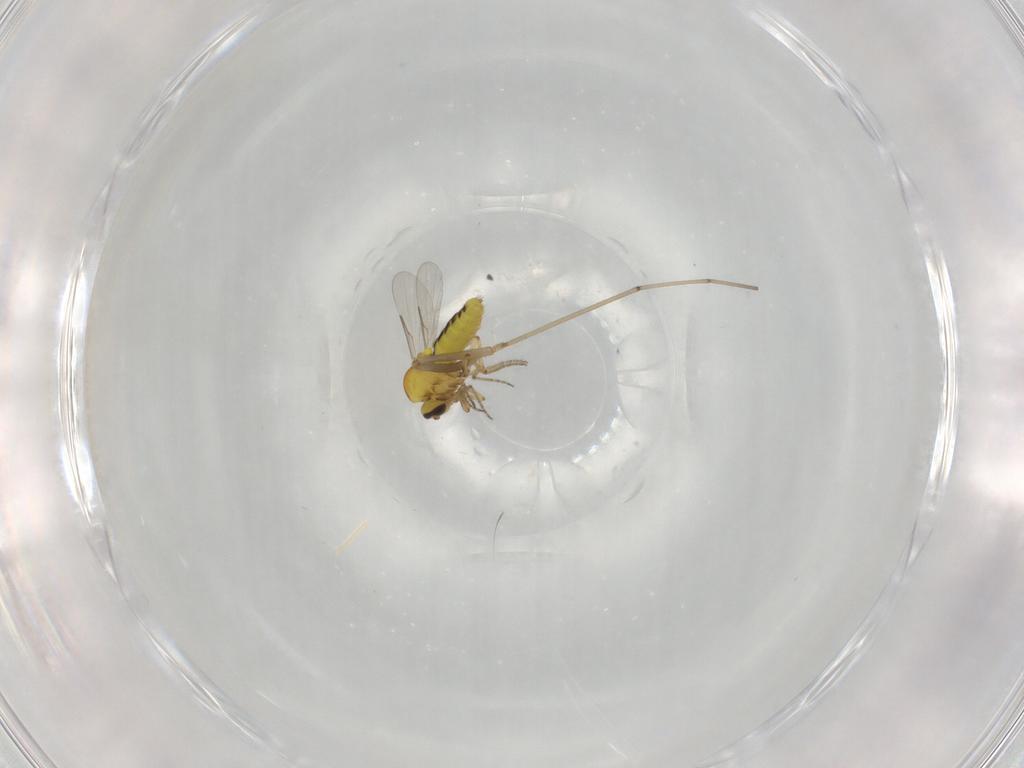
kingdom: Animalia
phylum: Arthropoda
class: Insecta
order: Diptera
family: Cecidomyiidae
